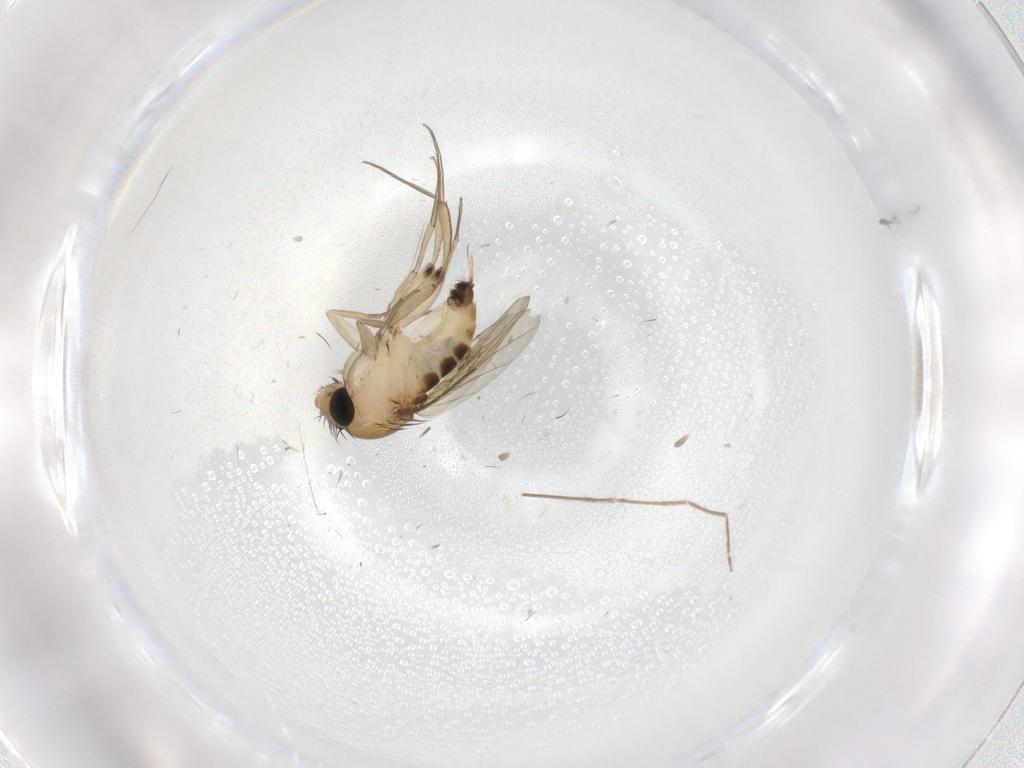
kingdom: Animalia
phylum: Arthropoda
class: Insecta
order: Diptera
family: Chironomidae
